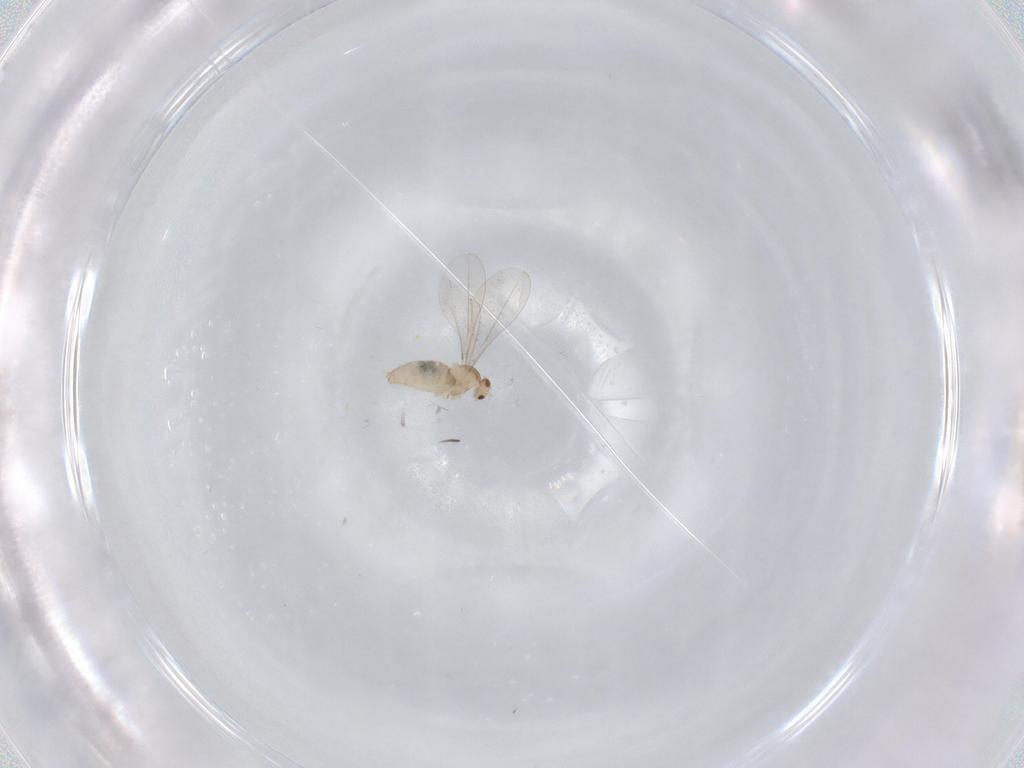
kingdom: Animalia
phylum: Arthropoda
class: Insecta
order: Diptera
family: Cecidomyiidae
